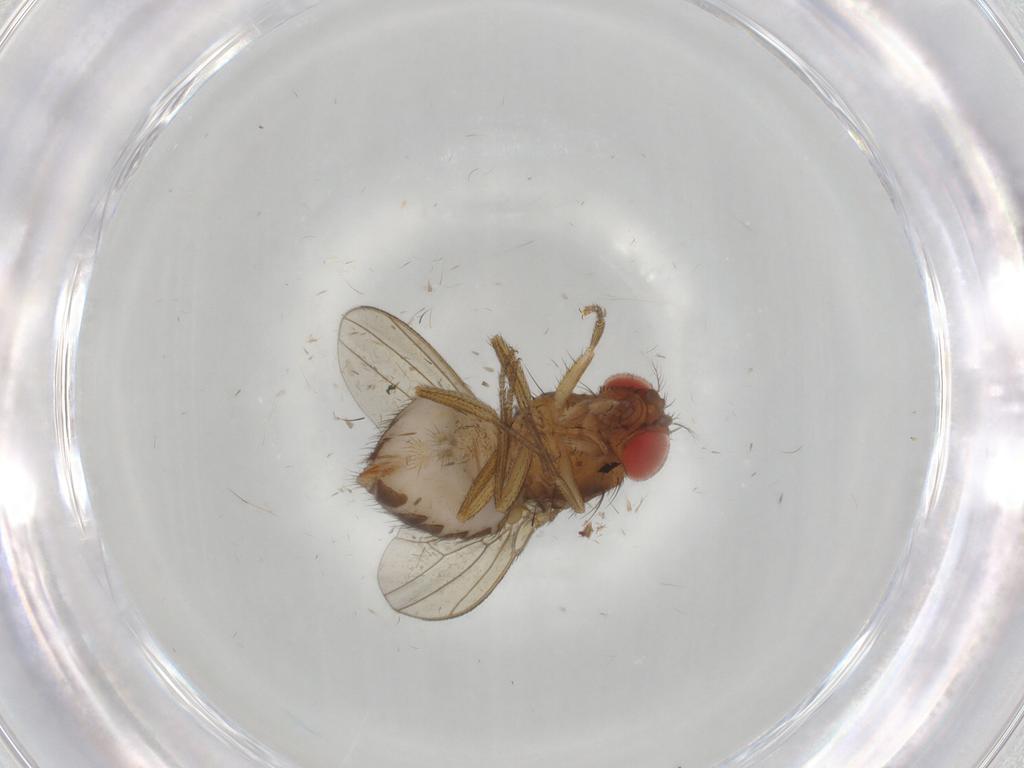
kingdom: Animalia
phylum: Arthropoda
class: Insecta
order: Diptera
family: Drosophilidae
